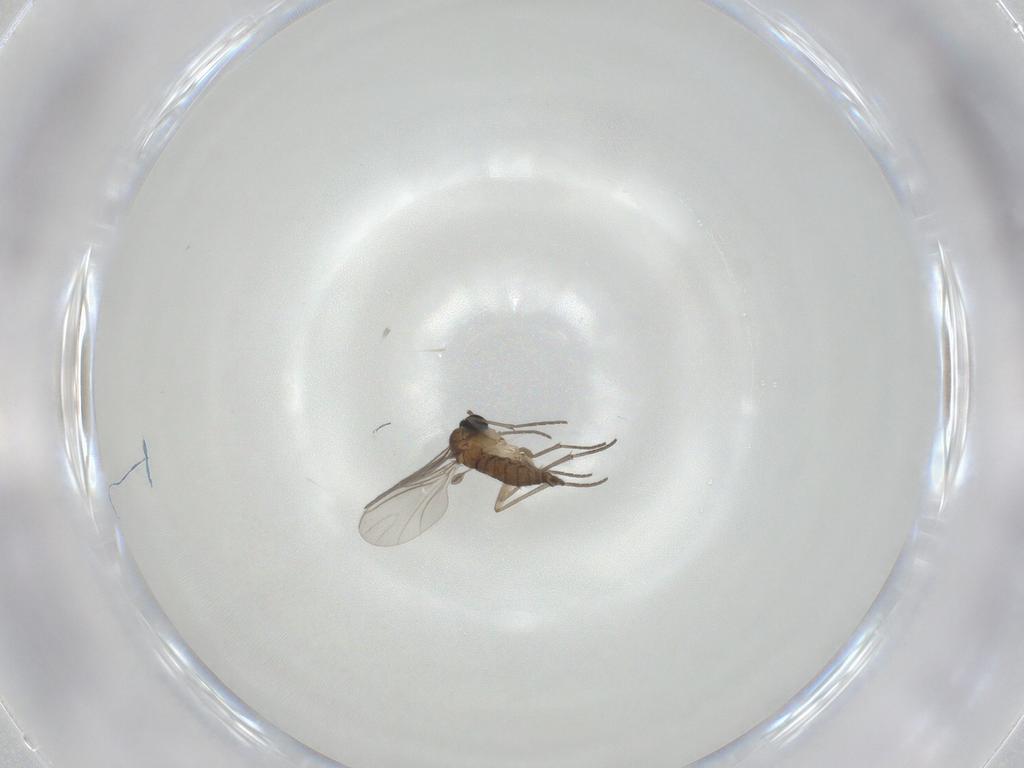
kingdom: Animalia
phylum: Arthropoda
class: Insecta
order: Diptera
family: Sciaridae
